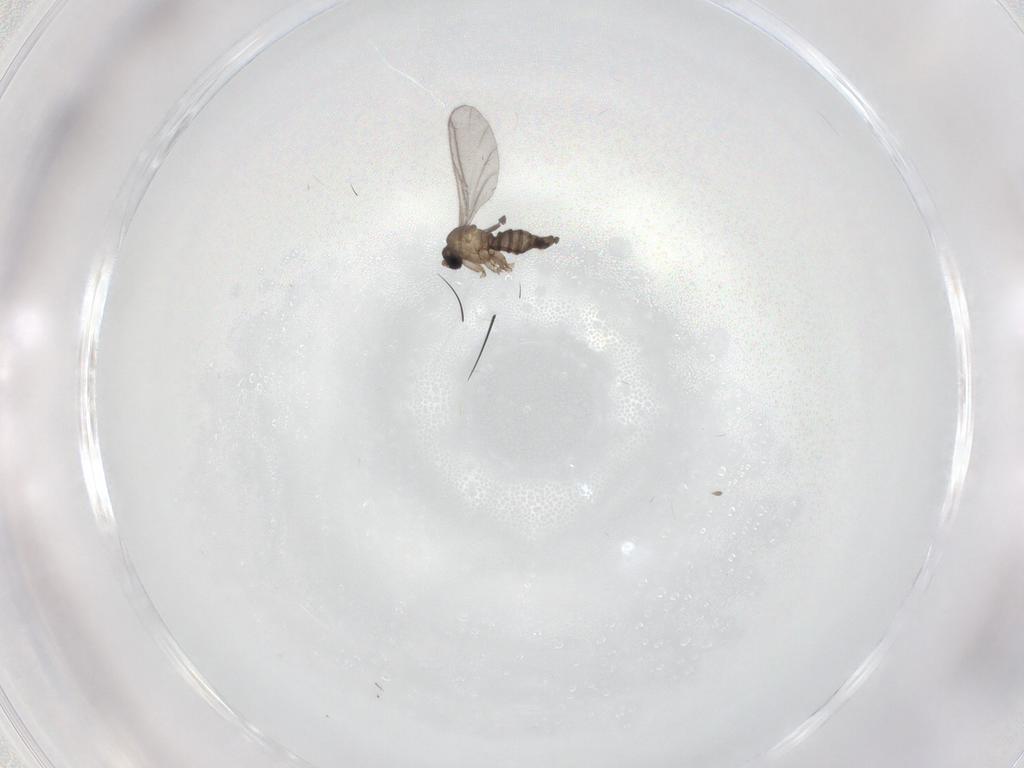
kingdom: Animalia
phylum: Arthropoda
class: Insecta
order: Diptera
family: Sciaridae
